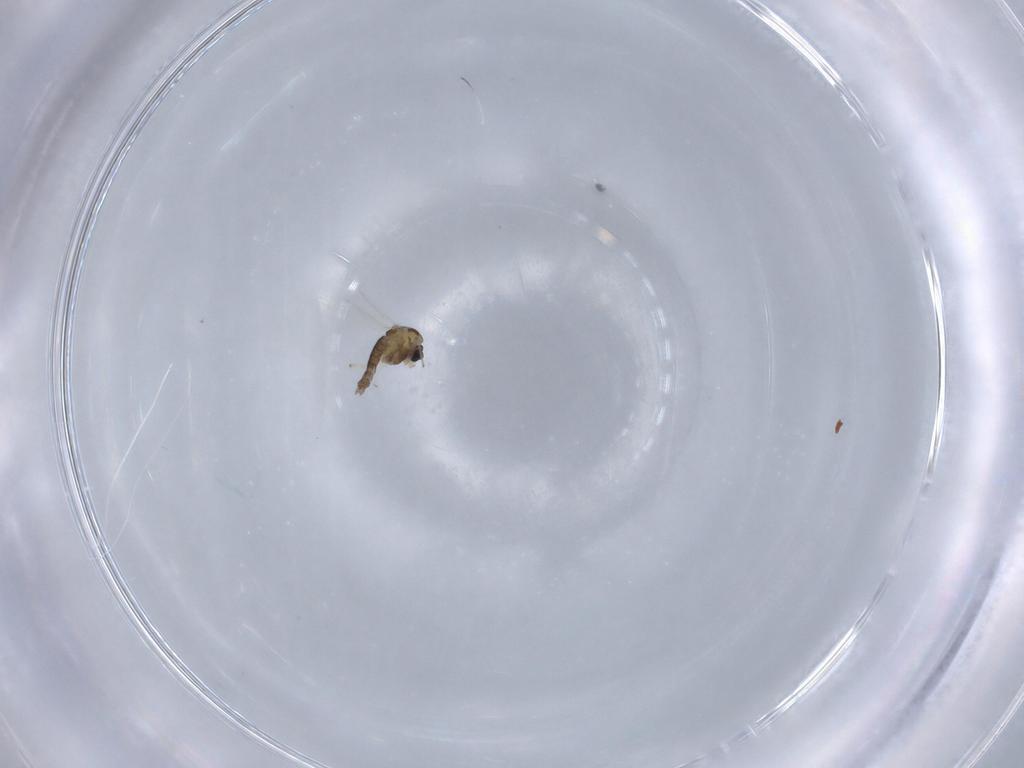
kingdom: Animalia
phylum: Arthropoda
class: Insecta
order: Diptera
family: Chironomidae
